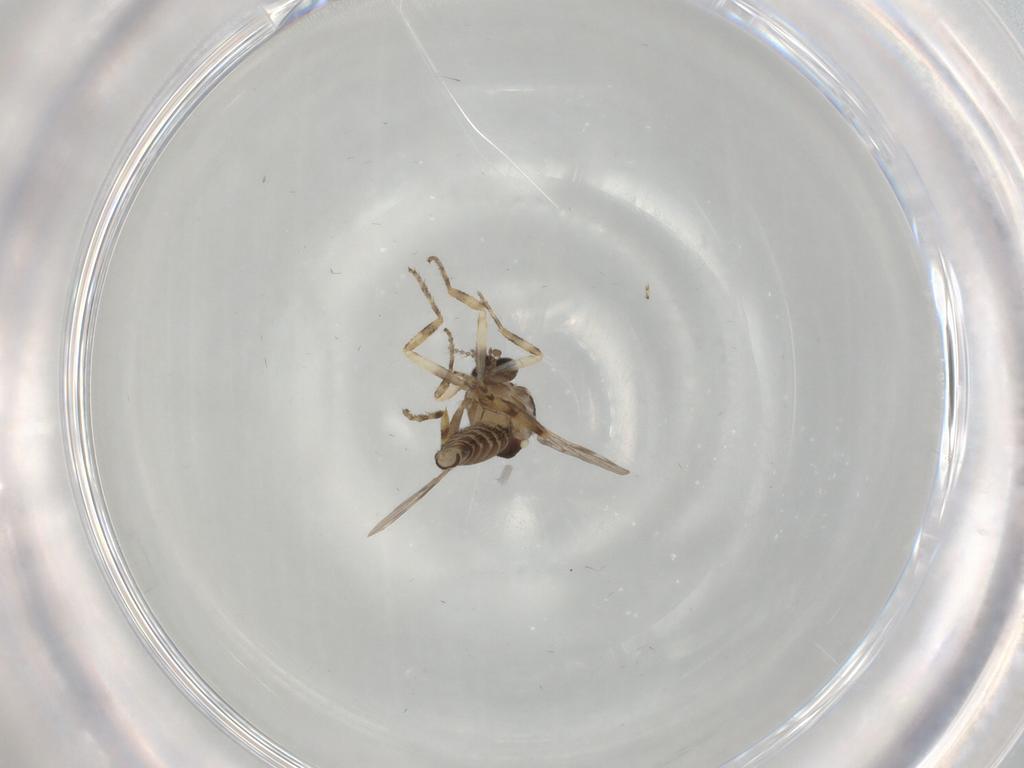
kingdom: Animalia
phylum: Arthropoda
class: Insecta
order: Diptera
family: Ceratopogonidae
